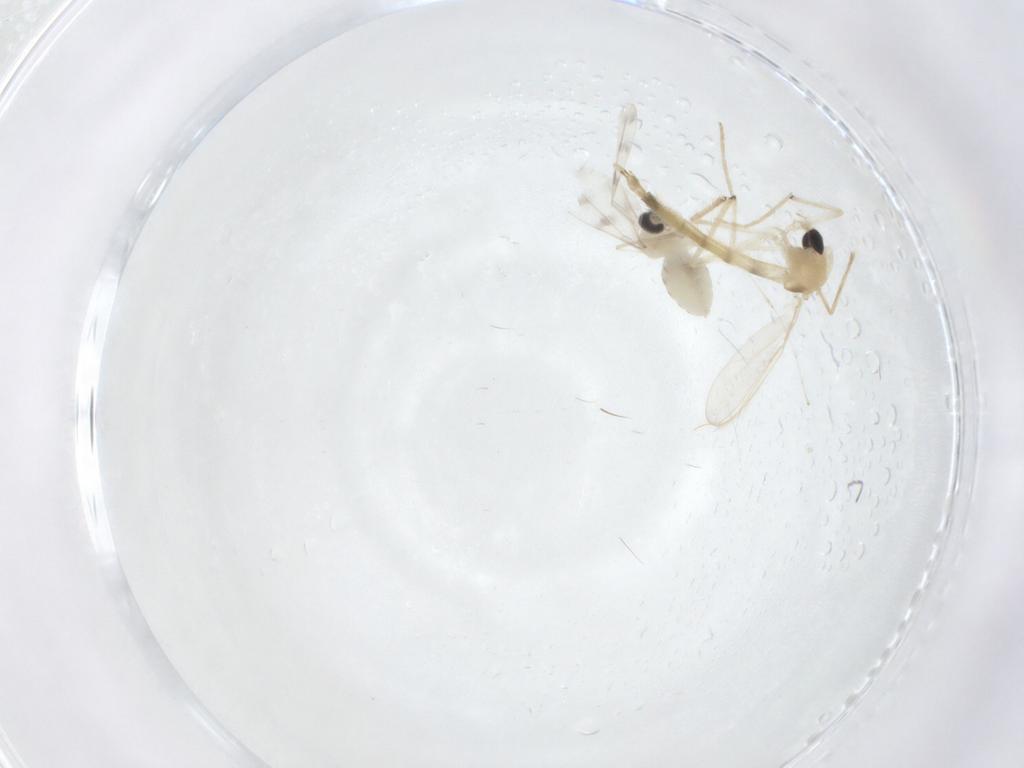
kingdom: Animalia
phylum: Arthropoda
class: Insecta
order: Diptera
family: Chironomidae
